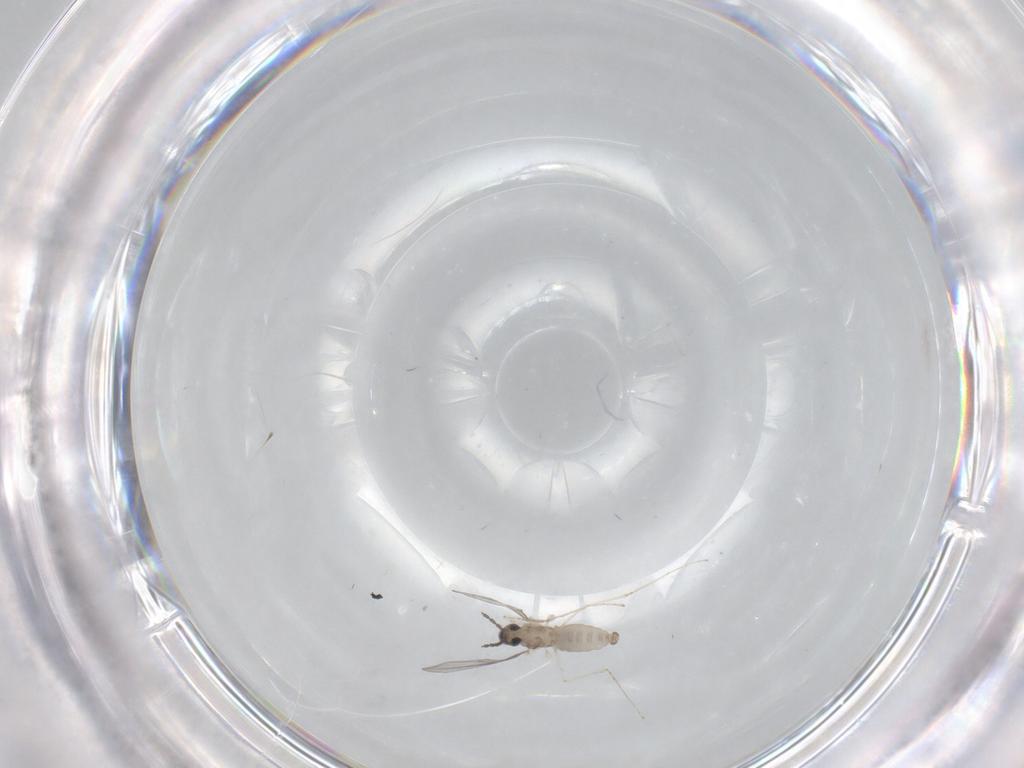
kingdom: Animalia
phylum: Arthropoda
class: Insecta
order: Diptera
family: Cecidomyiidae
